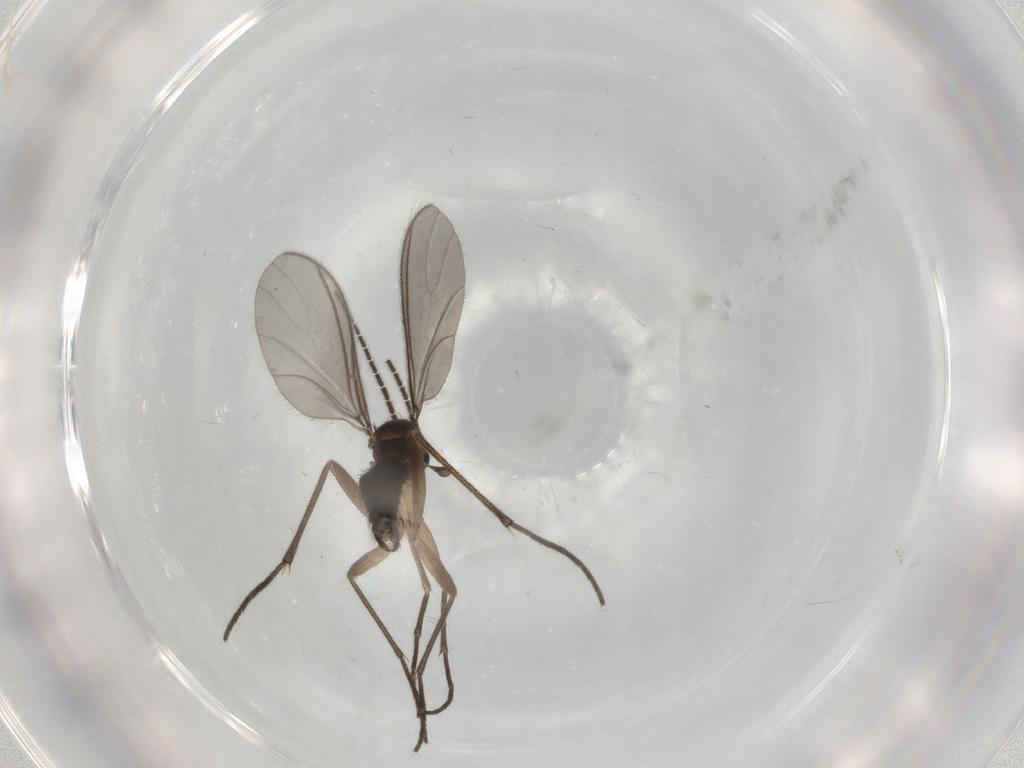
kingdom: Animalia
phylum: Arthropoda
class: Insecta
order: Diptera
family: Sciaridae
